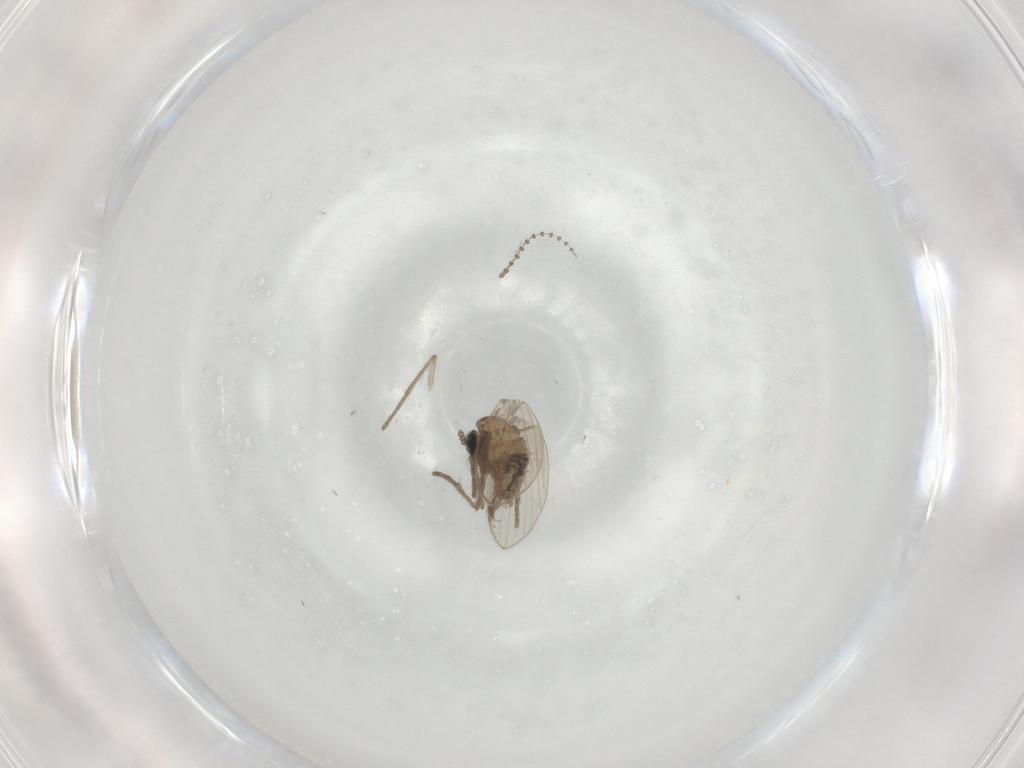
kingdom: Animalia
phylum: Arthropoda
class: Insecta
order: Diptera
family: Psychodidae
